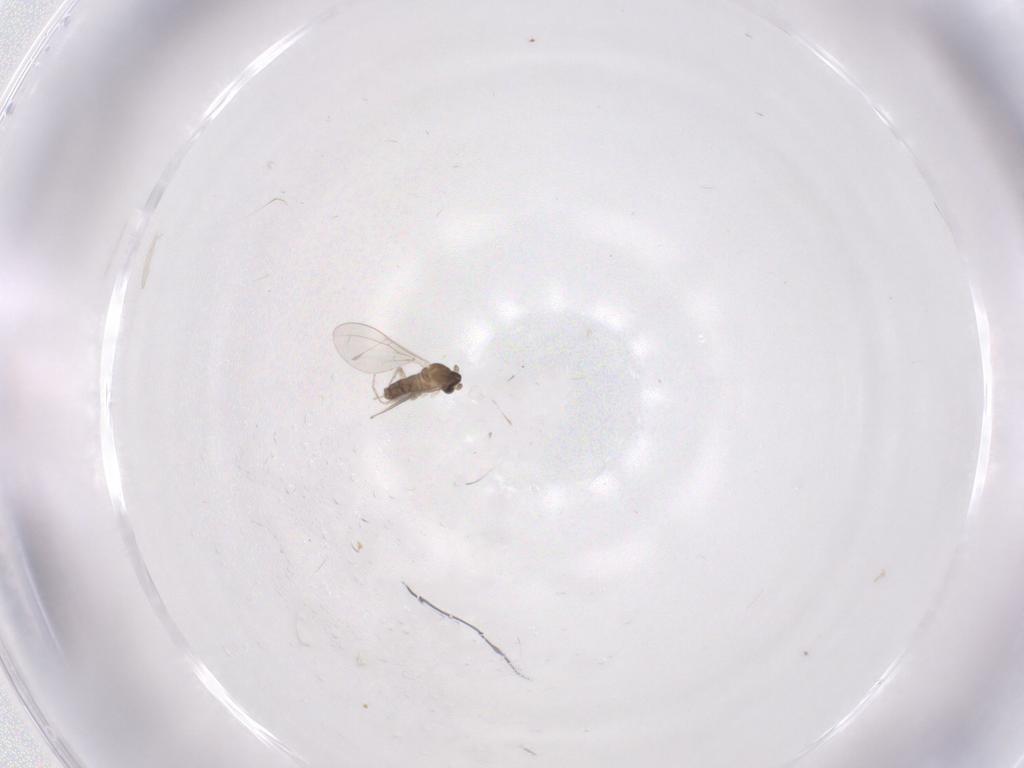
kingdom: Animalia
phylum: Arthropoda
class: Insecta
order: Diptera
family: Cecidomyiidae
